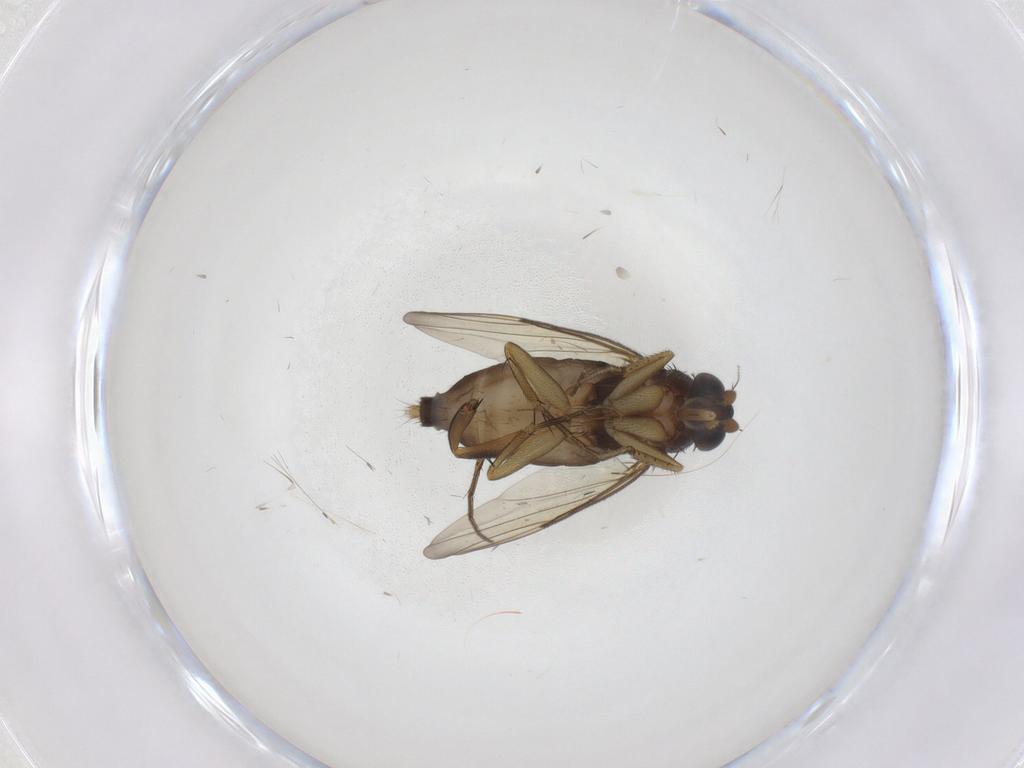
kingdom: Animalia
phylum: Arthropoda
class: Insecta
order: Diptera
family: Phoridae
